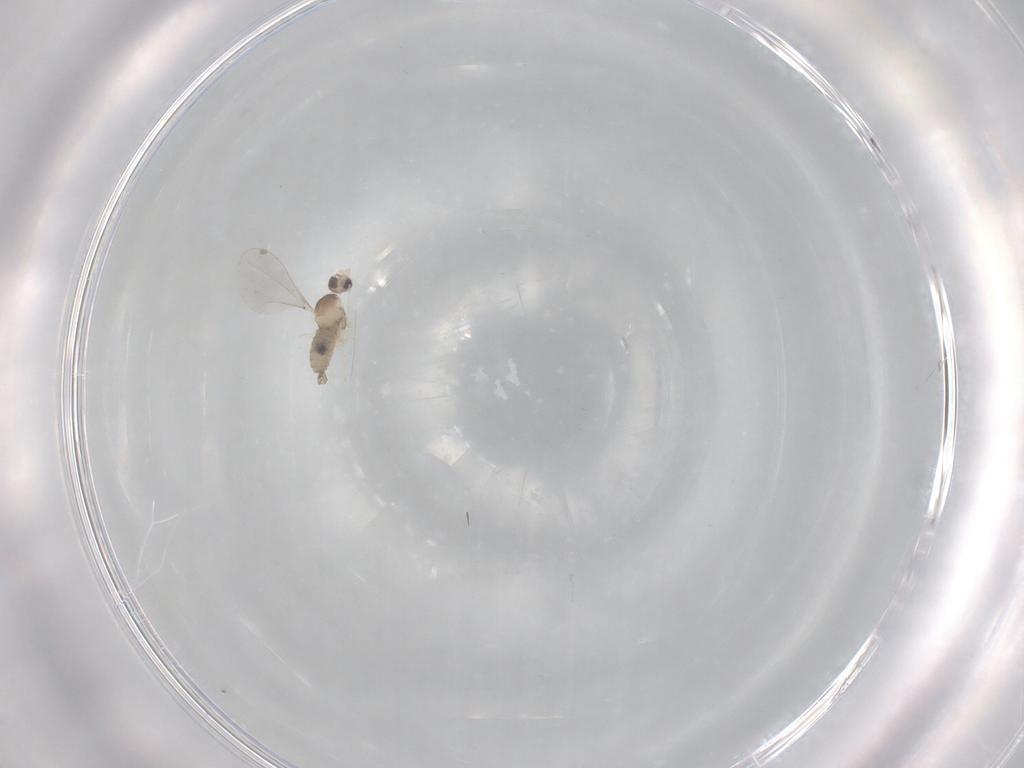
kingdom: Animalia
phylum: Arthropoda
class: Insecta
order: Diptera
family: Cecidomyiidae
